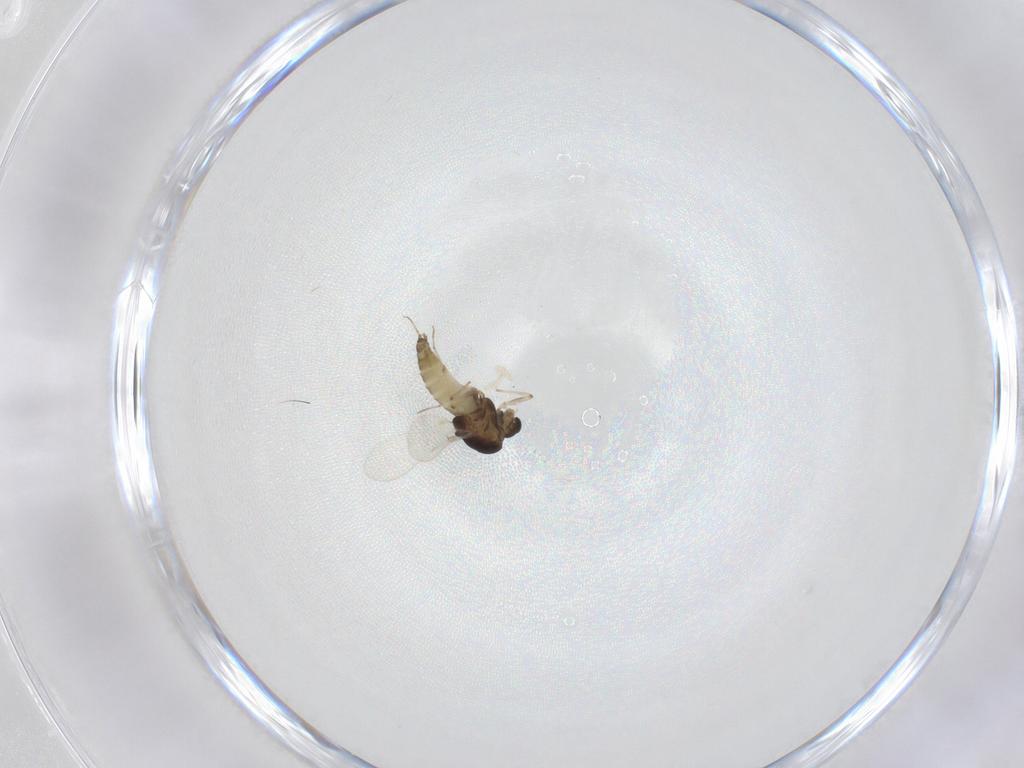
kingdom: Animalia
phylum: Arthropoda
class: Insecta
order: Diptera
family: Chironomidae
